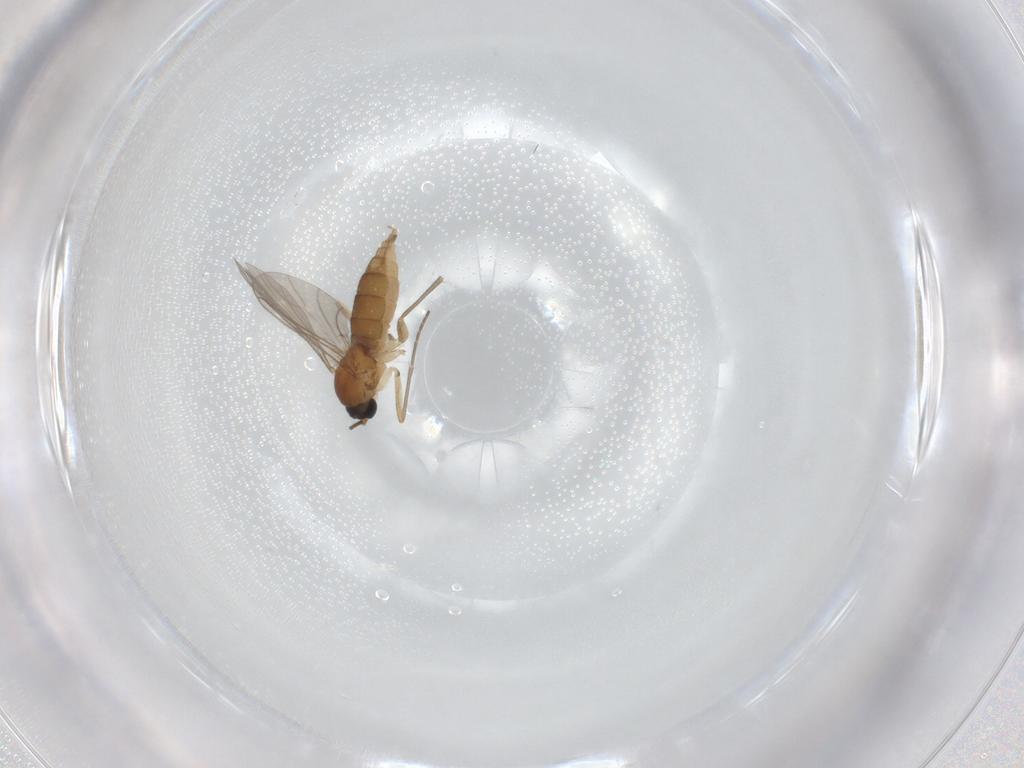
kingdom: Animalia
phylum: Arthropoda
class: Insecta
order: Diptera
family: Sciaridae
